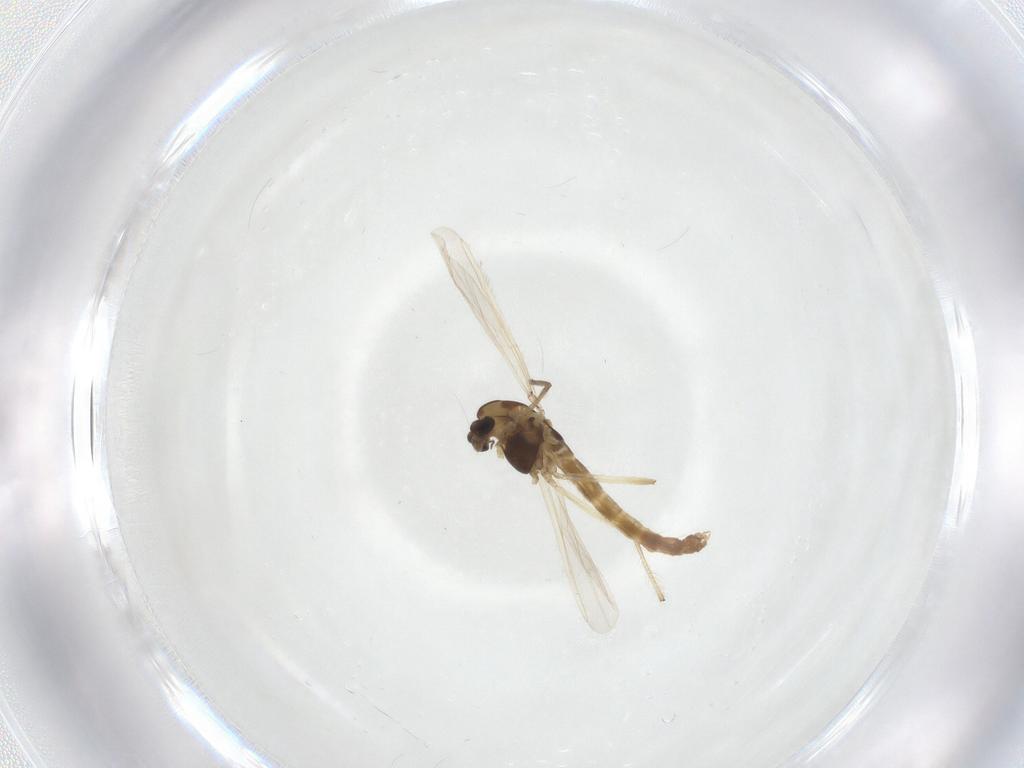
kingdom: Animalia
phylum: Arthropoda
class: Insecta
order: Diptera
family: Chironomidae
